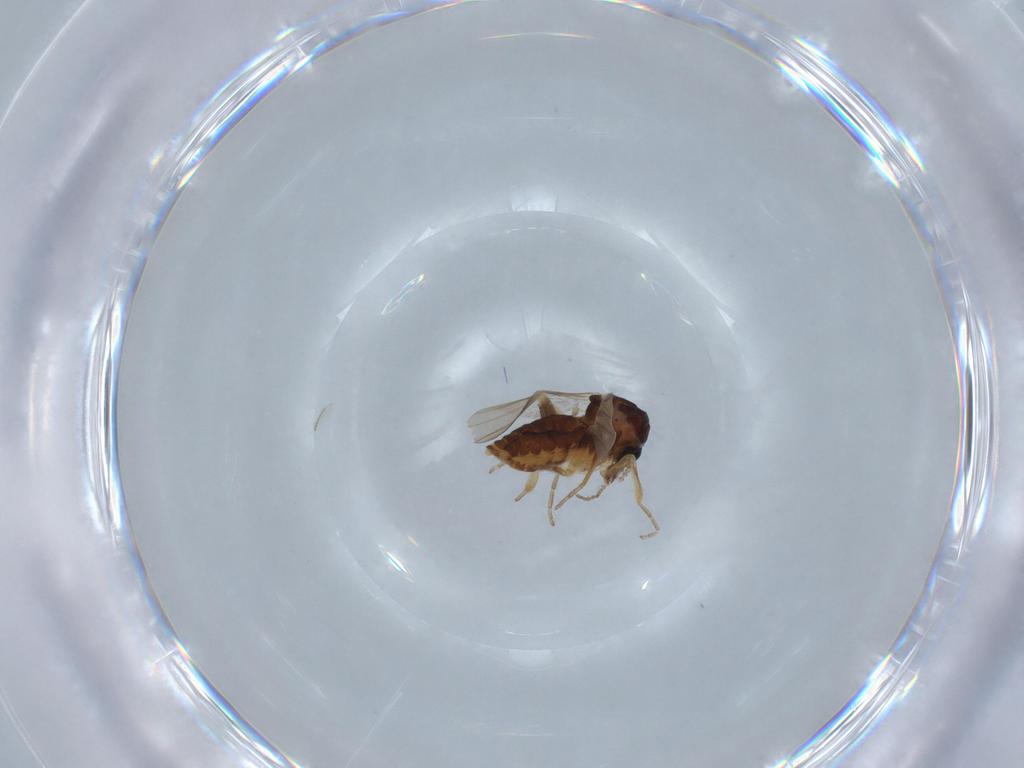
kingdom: Animalia
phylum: Arthropoda
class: Insecta
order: Diptera
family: Ceratopogonidae
